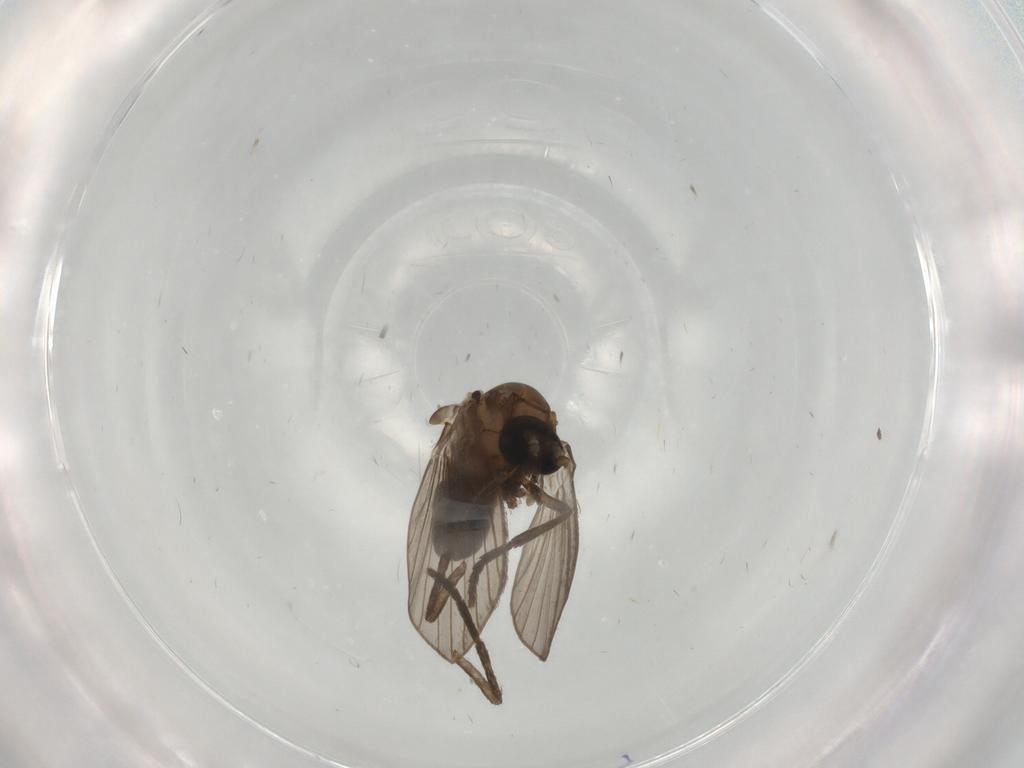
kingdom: Animalia
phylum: Arthropoda
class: Insecta
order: Diptera
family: Psychodidae
